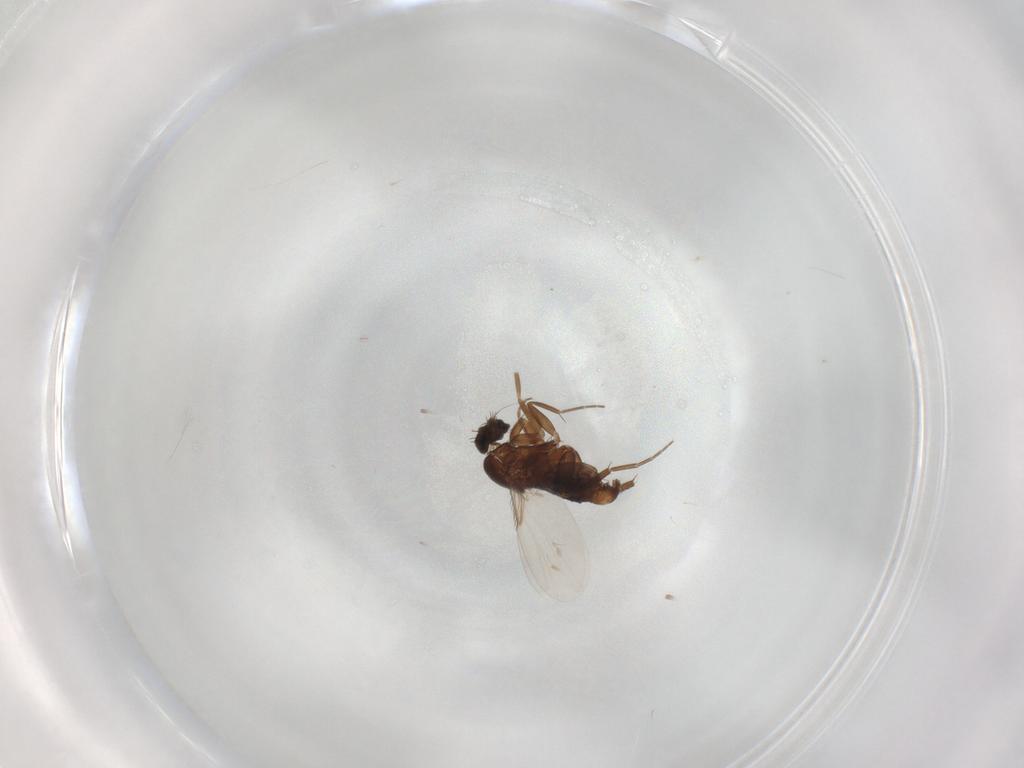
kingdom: Animalia
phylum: Arthropoda
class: Insecta
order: Diptera
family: Phoridae
